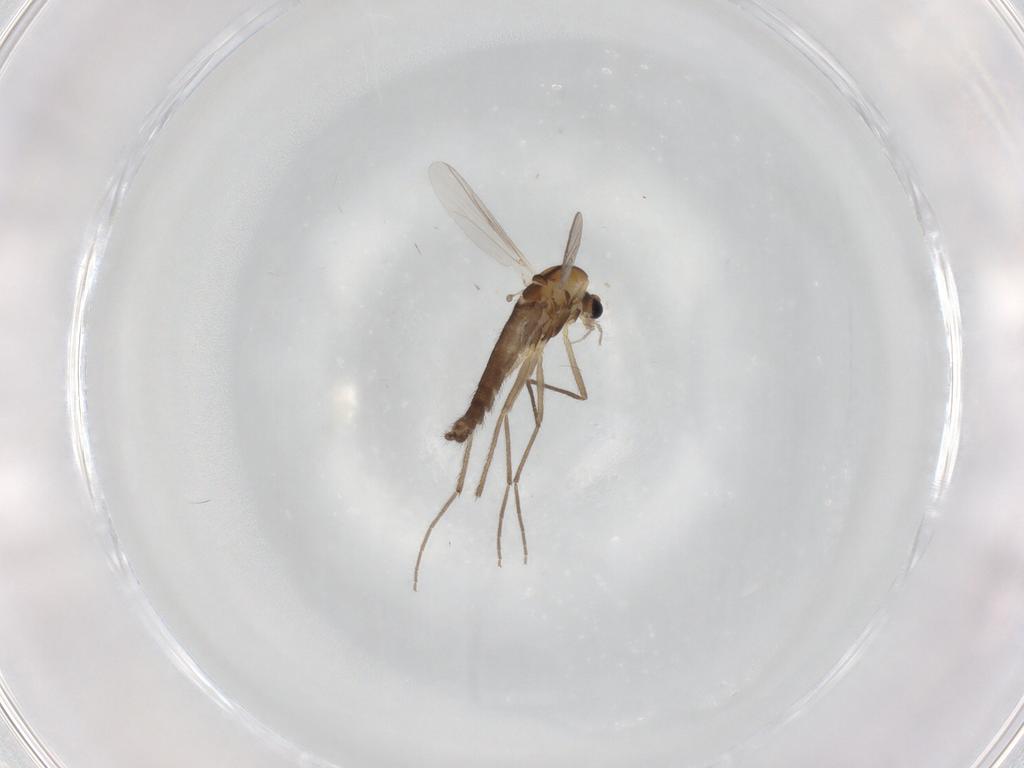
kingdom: Animalia
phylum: Arthropoda
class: Insecta
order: Diptera
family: Chironomidae
